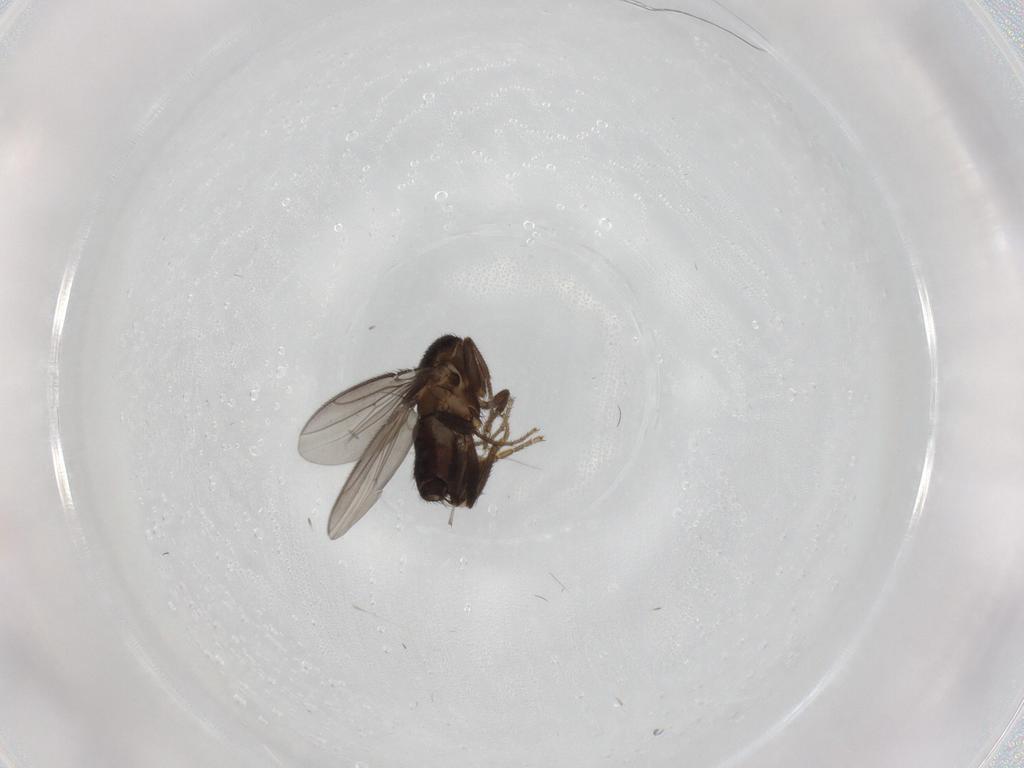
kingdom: Animalia
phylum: Arthropoda
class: Insecta
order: Diptera
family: Sphaeroceridae
